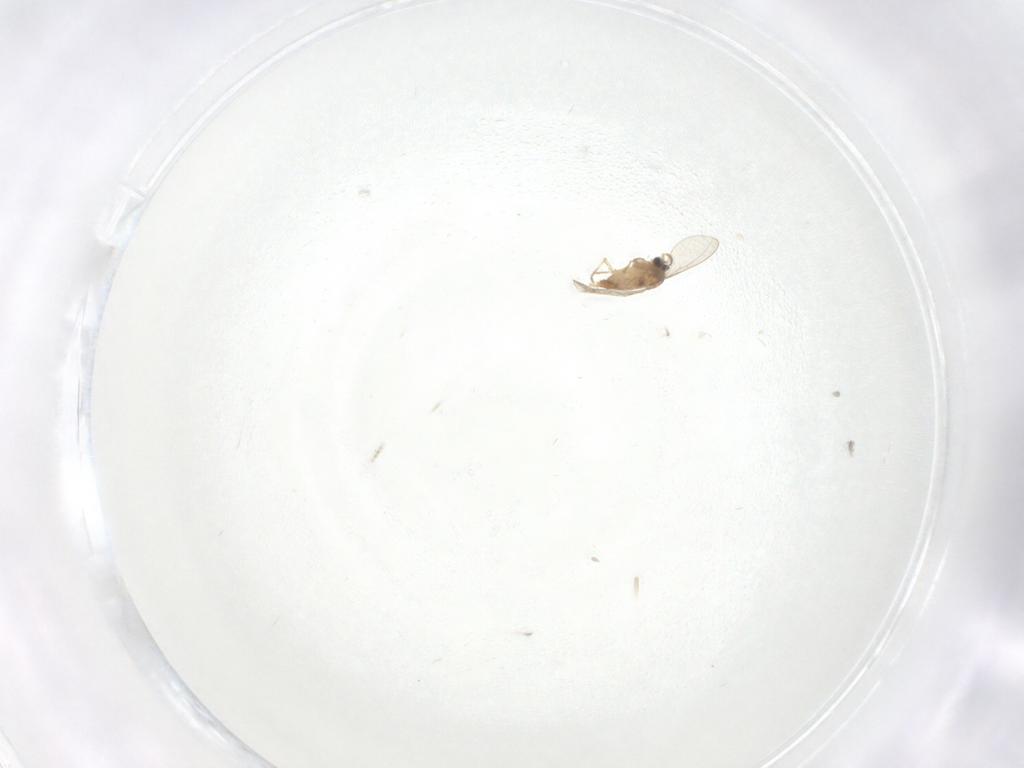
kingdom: Animalia
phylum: Arthropoda
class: Insecta
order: Diptera
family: Cecidomyiidae
